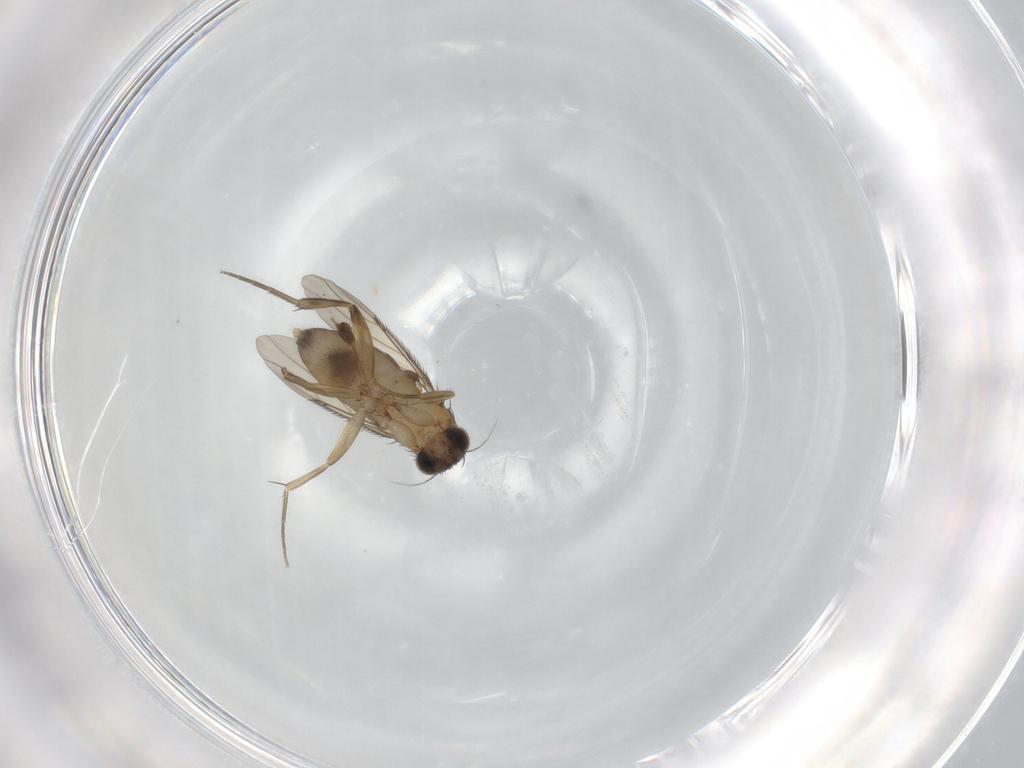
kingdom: Animalia
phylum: Arthropoda
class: Insecta
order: Diptera
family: Phoridae
